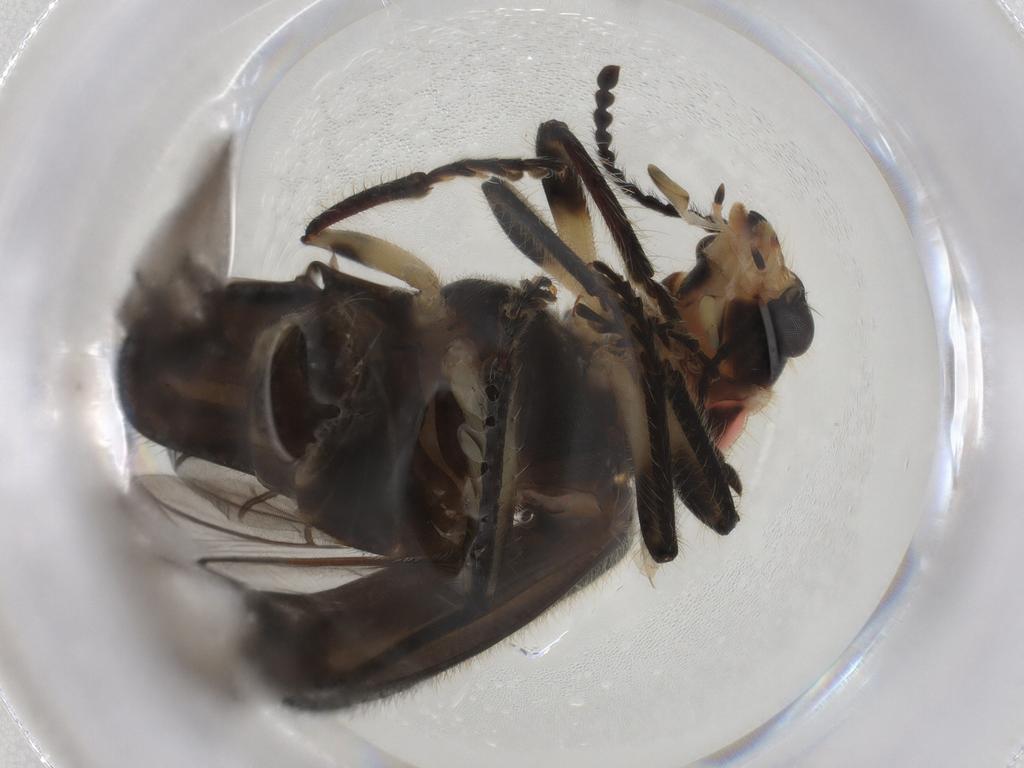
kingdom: Animalia
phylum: Arthropoda
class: Insecta
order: Coleoptera
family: Brentidae
